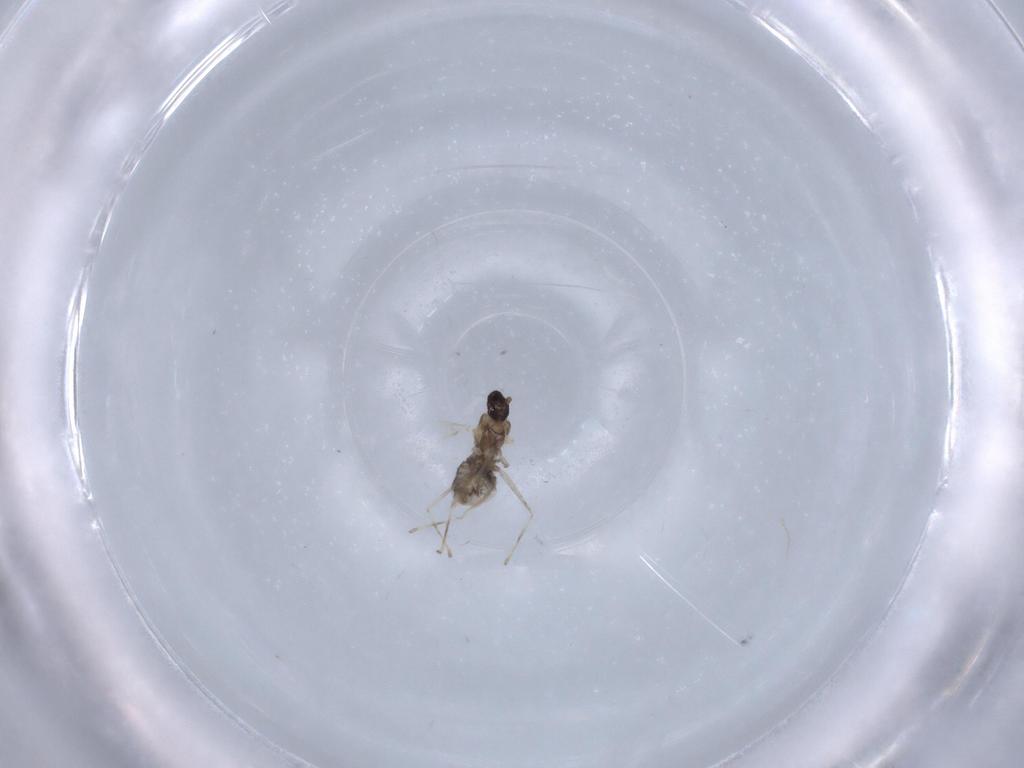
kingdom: Animalia
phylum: Arthropoda
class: Insecta
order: Diptera
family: Cecidomyiidae
